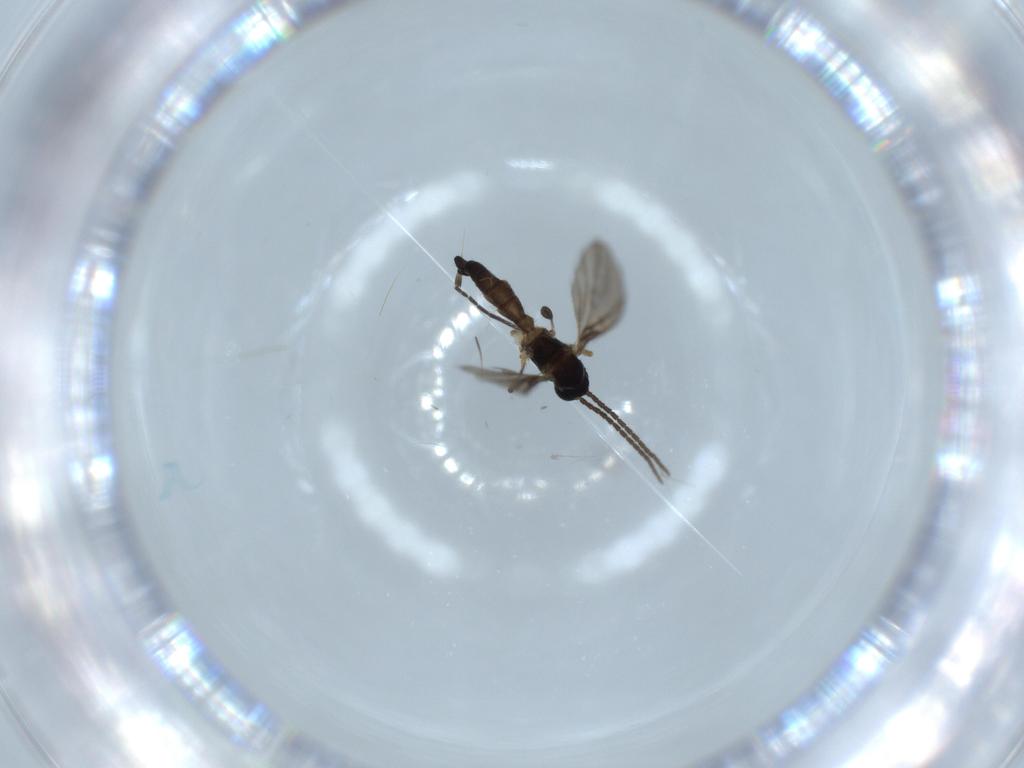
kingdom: Animalia
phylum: Arthropoda
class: Insecta
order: Diptera
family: Sciaridae
